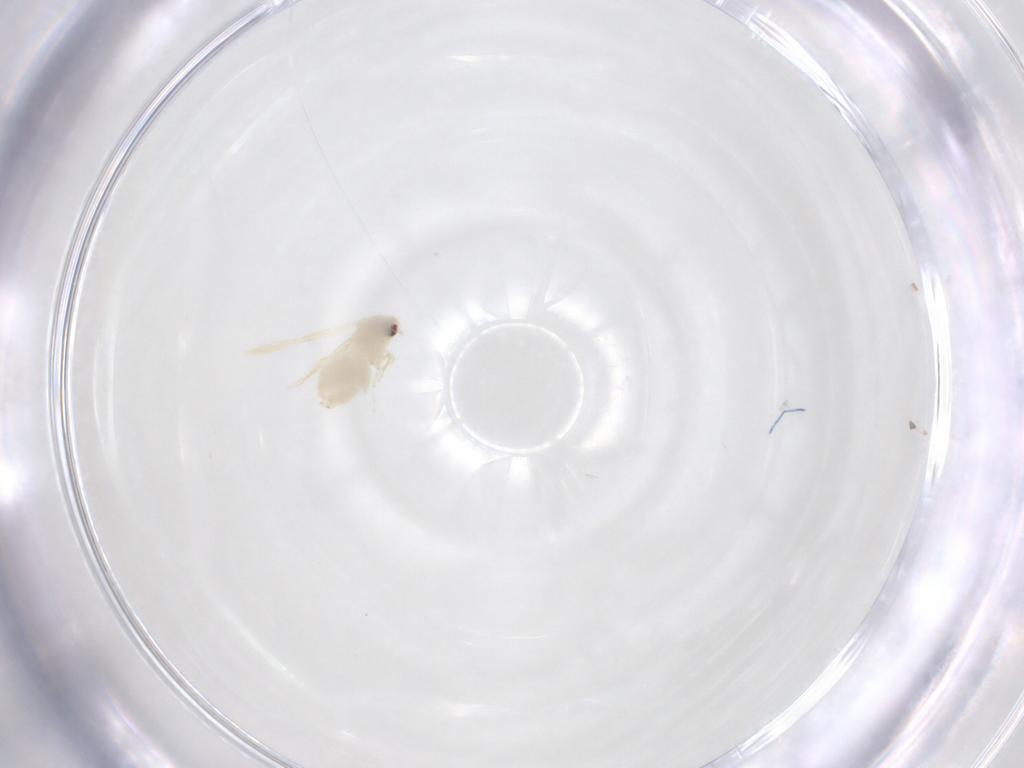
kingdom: Animalia
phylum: Arthropoda
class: Insecta
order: Hemiptera
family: Aleyrodidae
